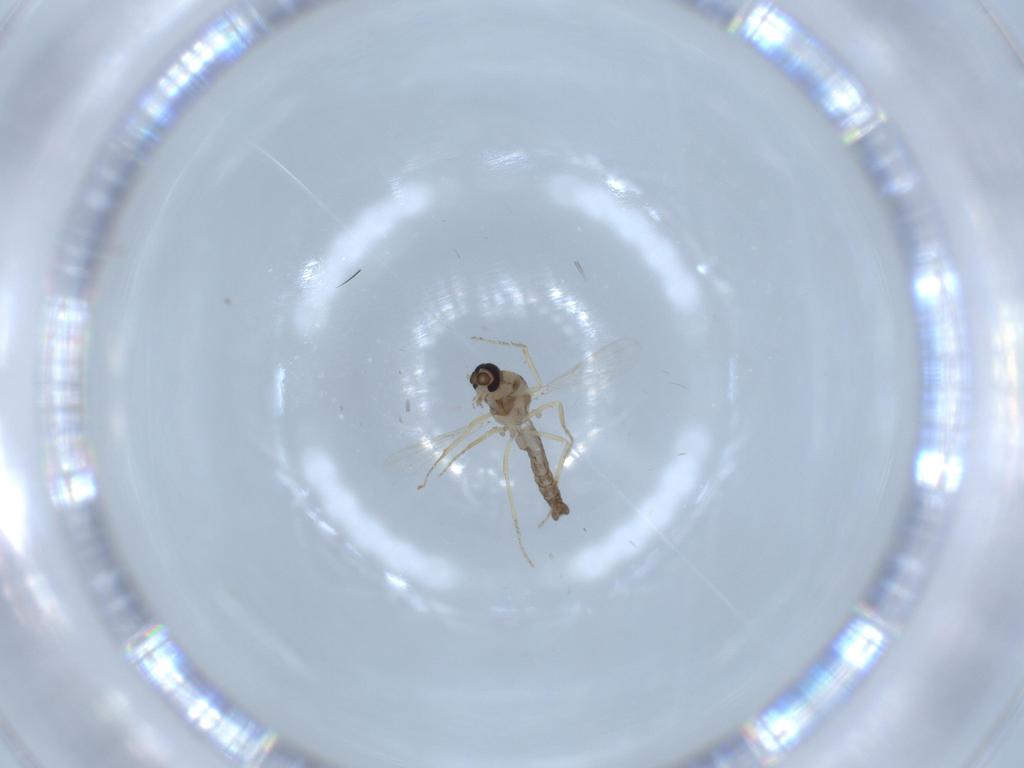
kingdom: Animalia
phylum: Arthropoda
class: Insecta
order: Diptera
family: Ceratopogonidae
